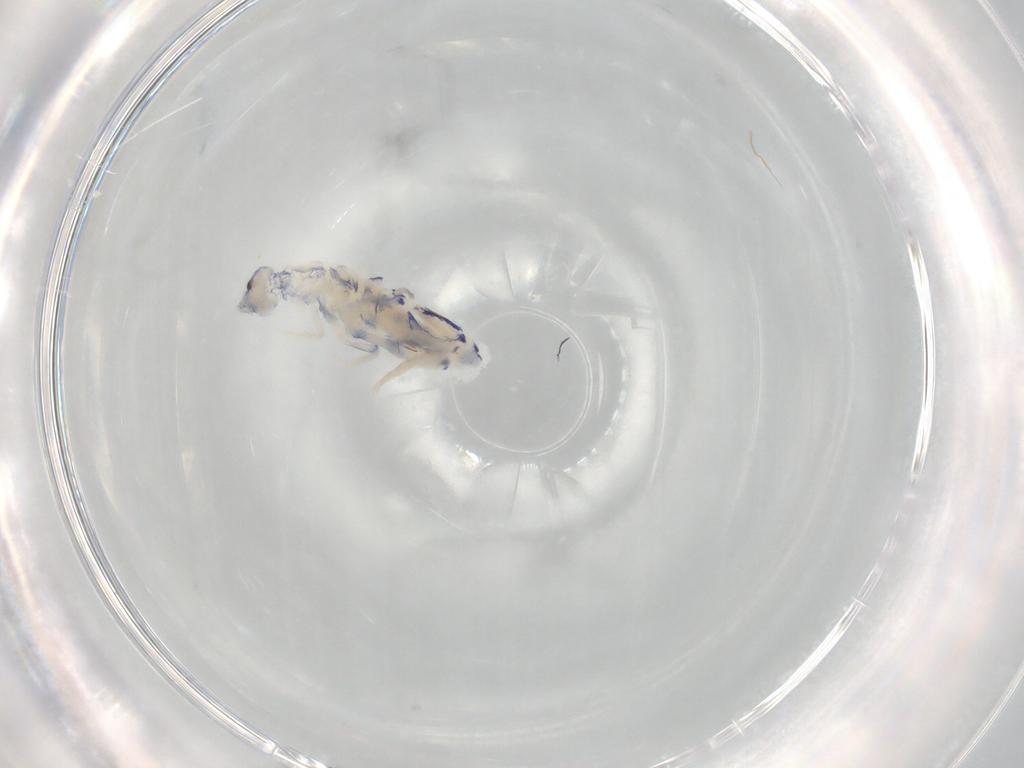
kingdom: Animalia
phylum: Arthropoda
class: Collembola
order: Entomobryomorpha
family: Entomobryidae
